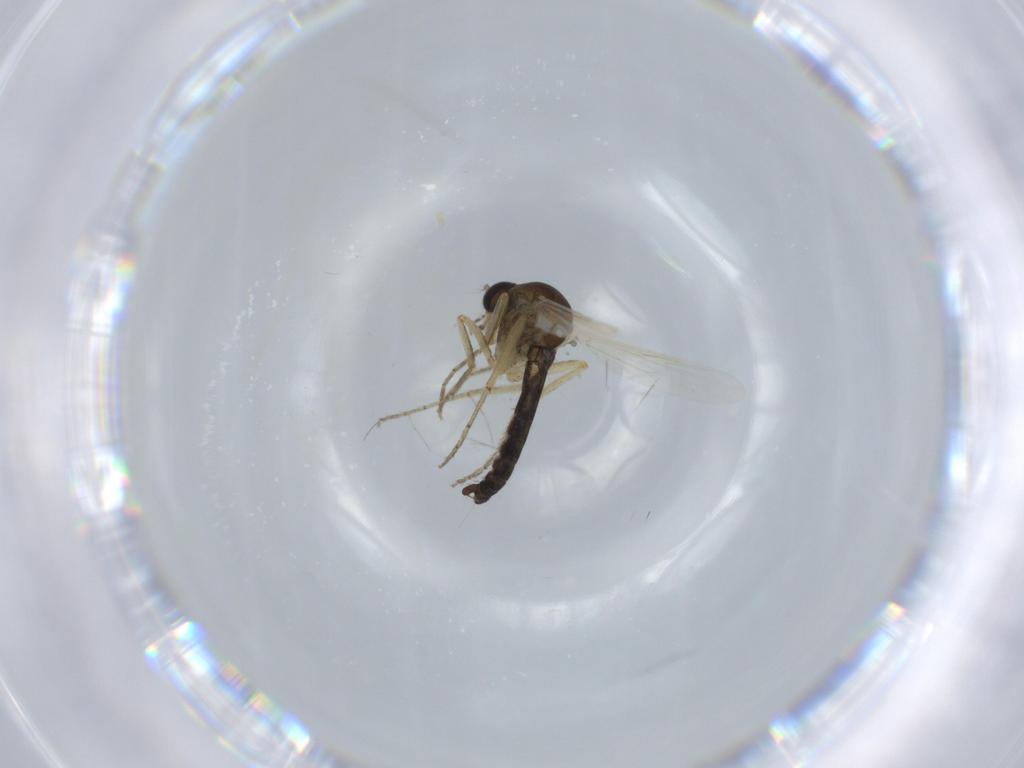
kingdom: Animalia
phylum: Arthropoda
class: Insecta
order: Diptera
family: Ceratopogonidae
